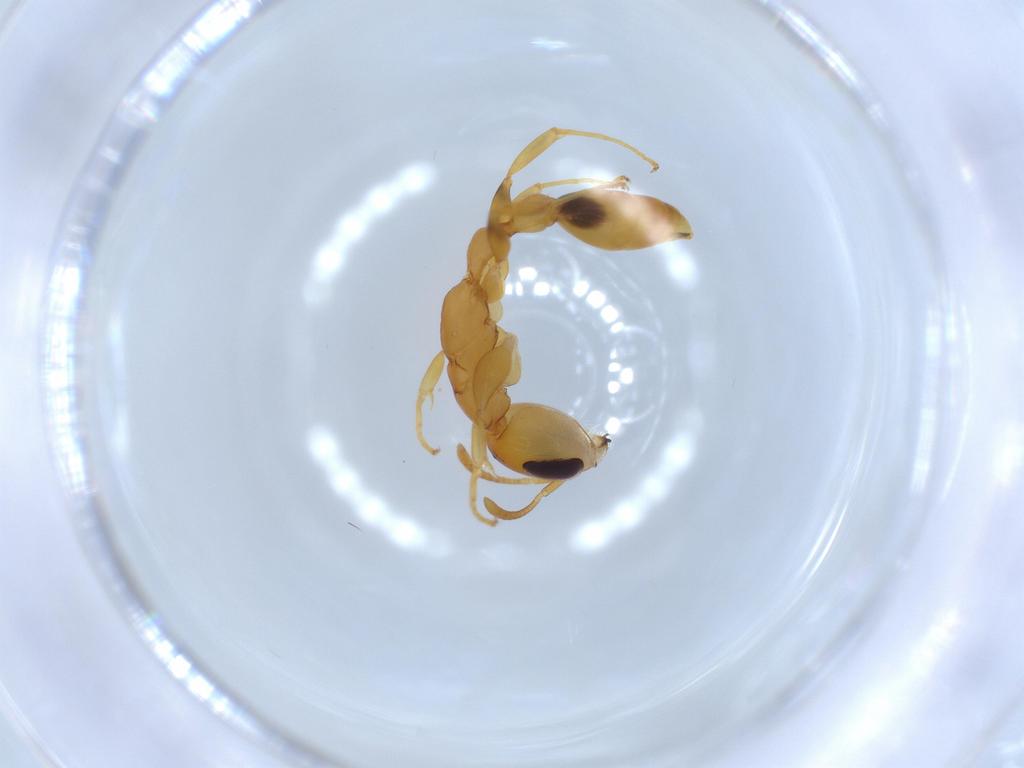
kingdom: Animalia
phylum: Arthropoda
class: Insecta
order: Hymenoptera
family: Formicidae
